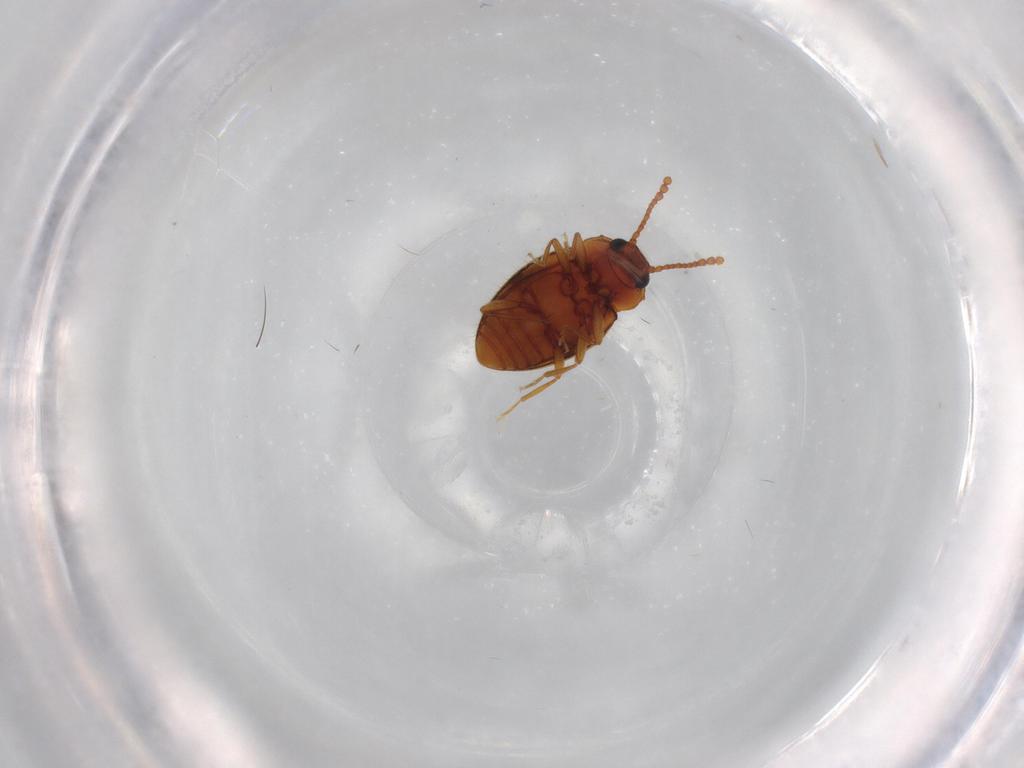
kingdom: Animalia
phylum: Arthropoda
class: Insecta
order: Coleoptera
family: Erotylidae
